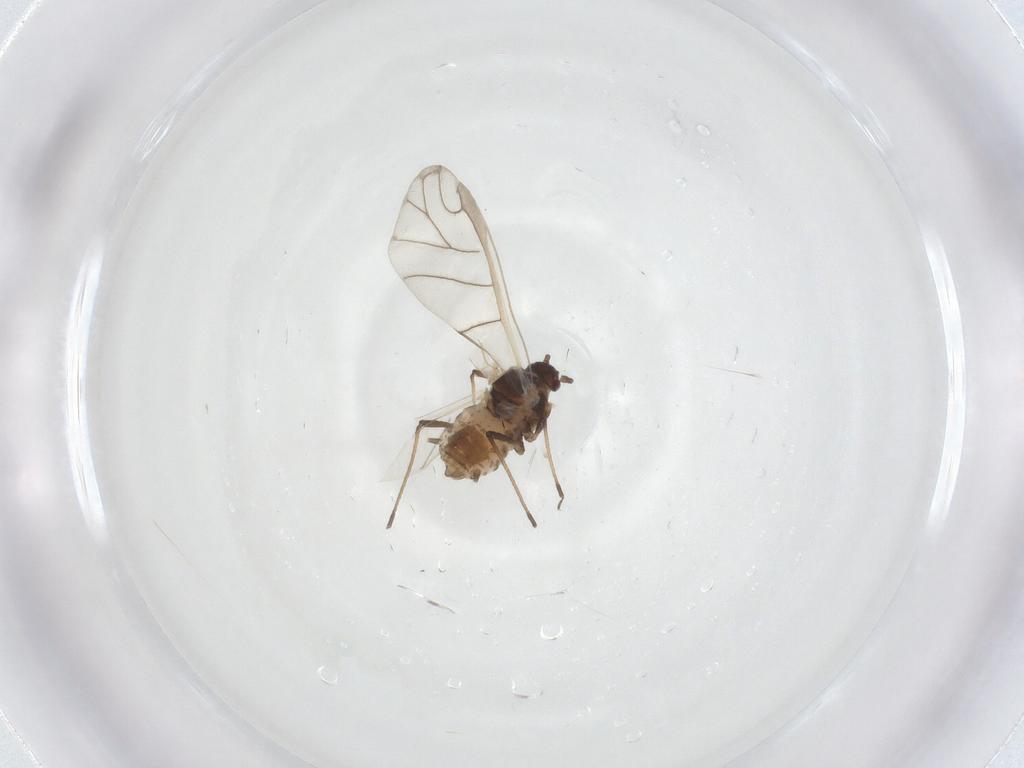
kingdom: Animalia
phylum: Arthropoda
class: Insecta
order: Hemiptera
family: Aphididae
